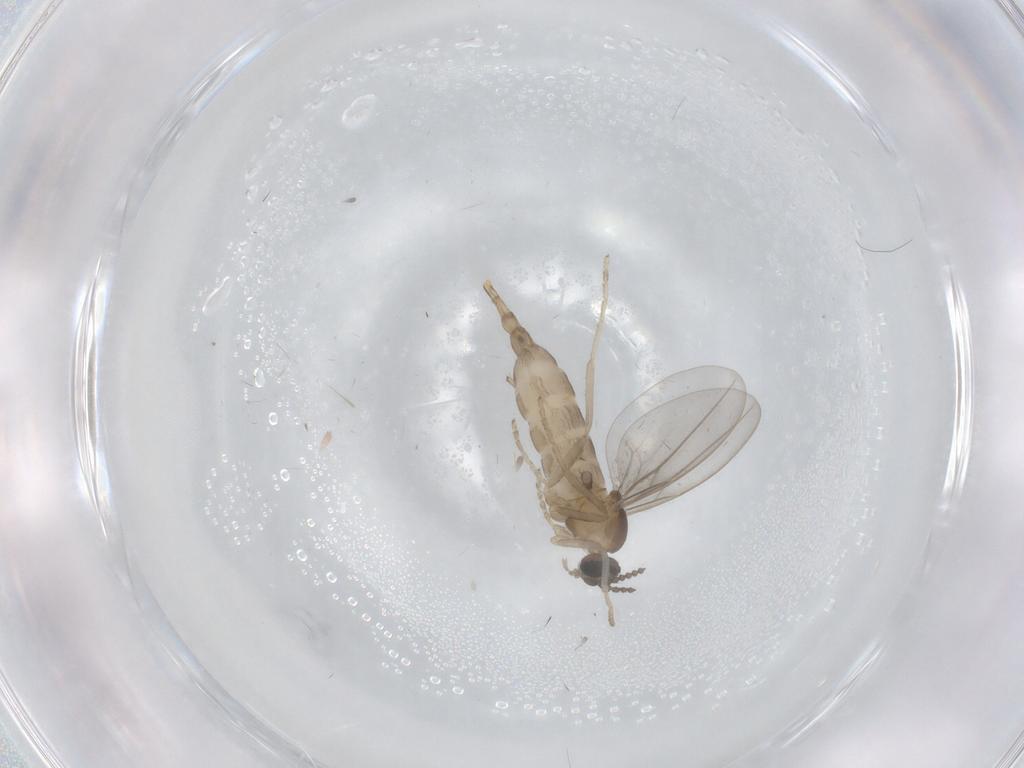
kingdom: Animalia
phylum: Arthropoda
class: Insecta
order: Diptera
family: Cecidomyiidae
